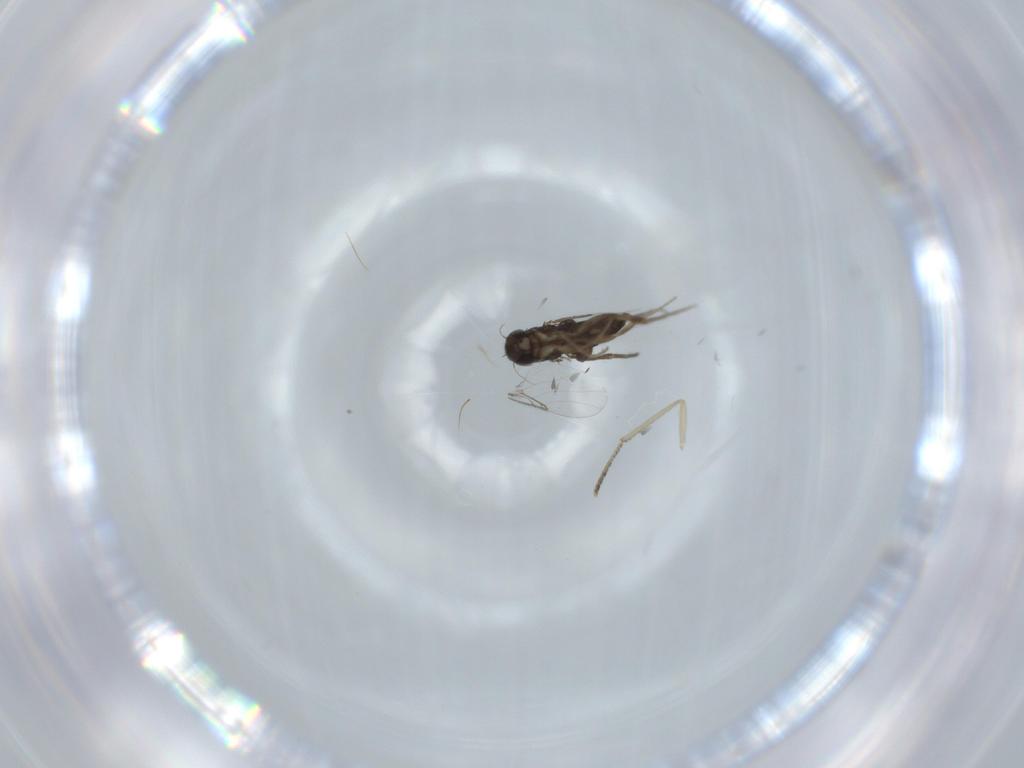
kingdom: Animalia
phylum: Arthropoda
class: Insecta
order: Diptera
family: Phoridae
